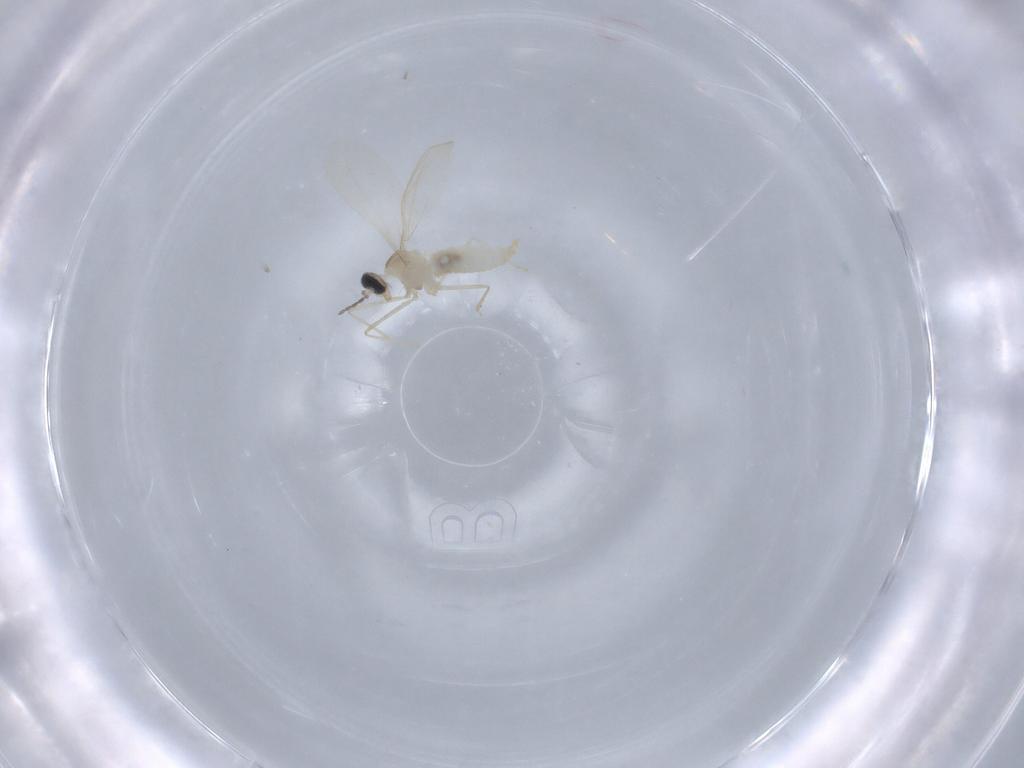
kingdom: Animalia
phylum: Arthropoda
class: Insecta
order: Diptera
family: Cecidomyiidae
